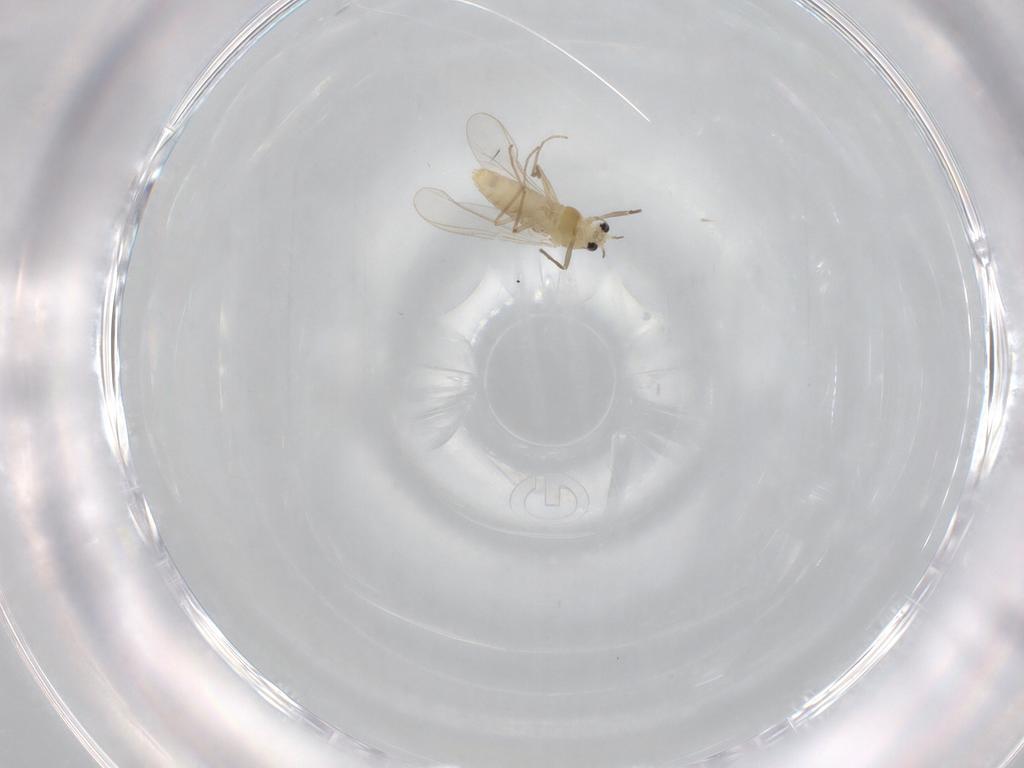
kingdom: Animalia
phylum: Arthropoda
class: Insecta
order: Diptera
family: Chironomidae
